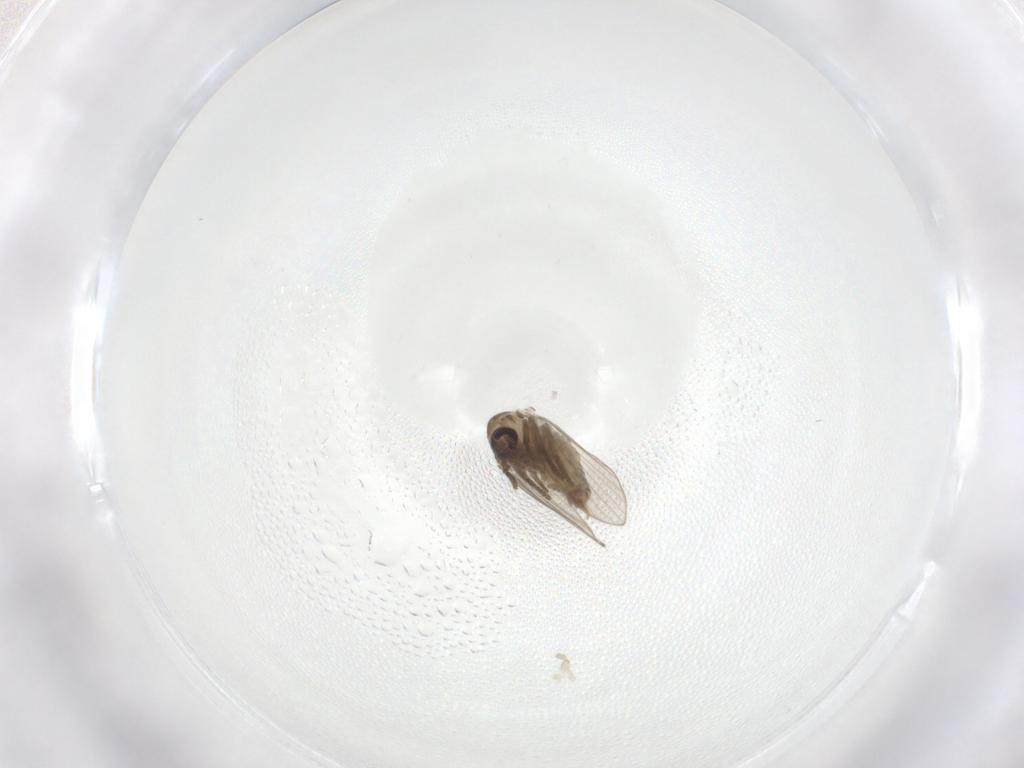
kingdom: Animalia
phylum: Arthropoda
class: Insecta
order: Diptera
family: Psychodidae
